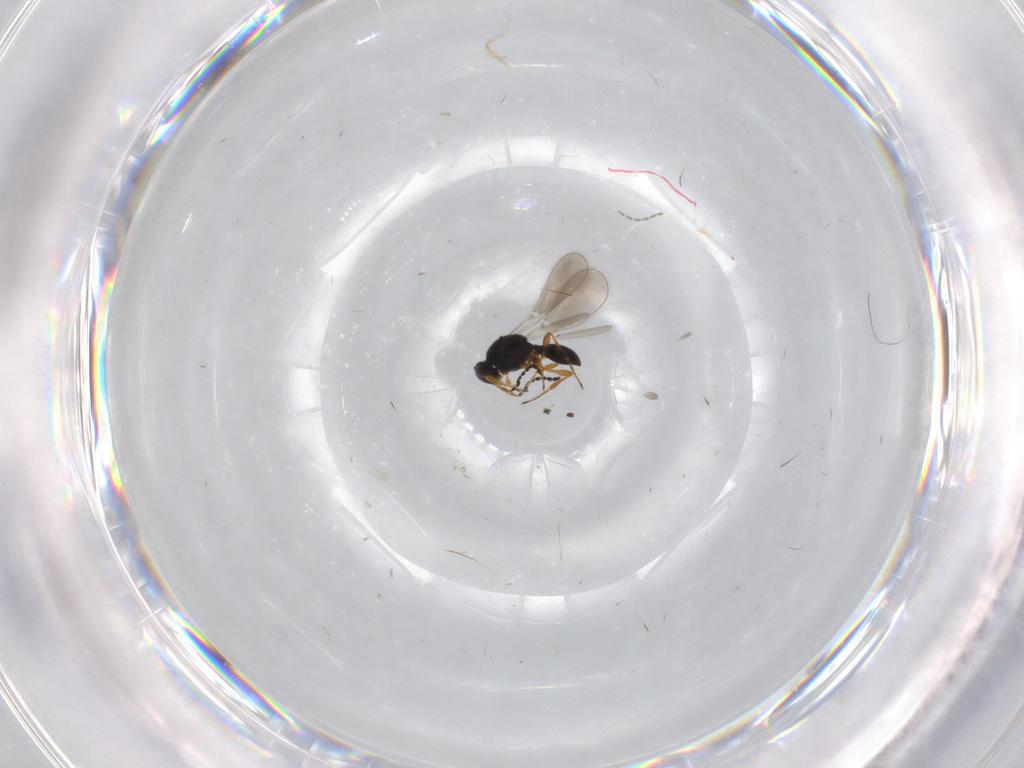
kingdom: Animalia
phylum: Arthropoda
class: Insecta
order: Hymenoptera
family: Platygastridae
